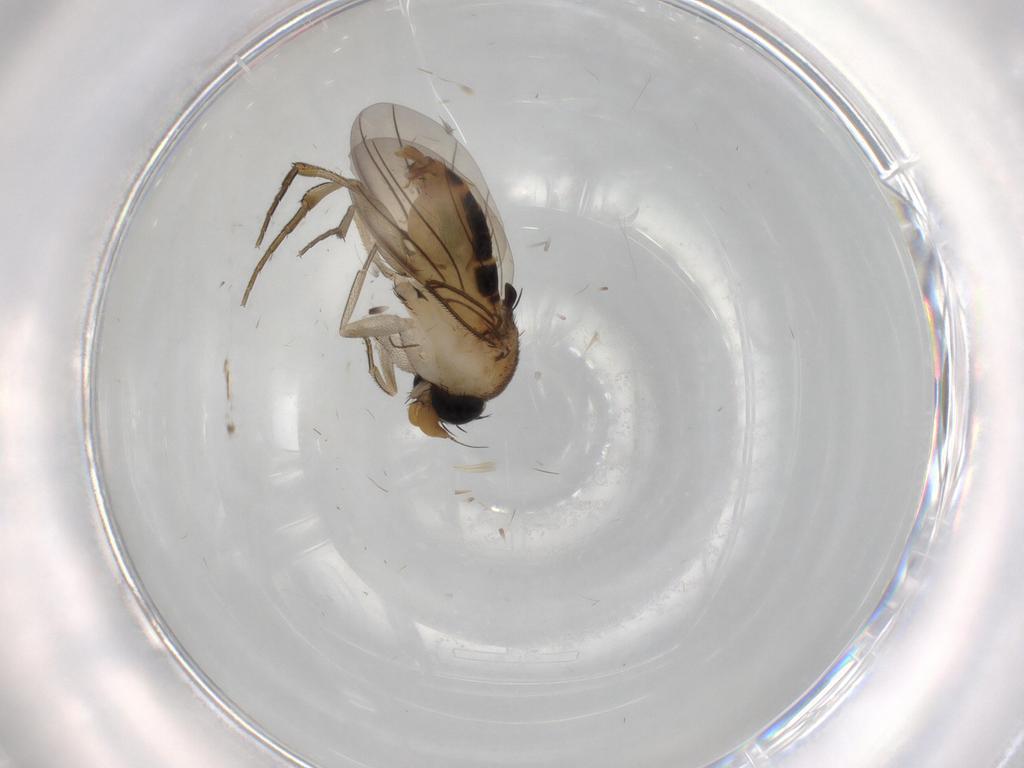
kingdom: Animalia
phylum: Arthropoda
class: Insecta
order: Diptera
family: Phoridae
